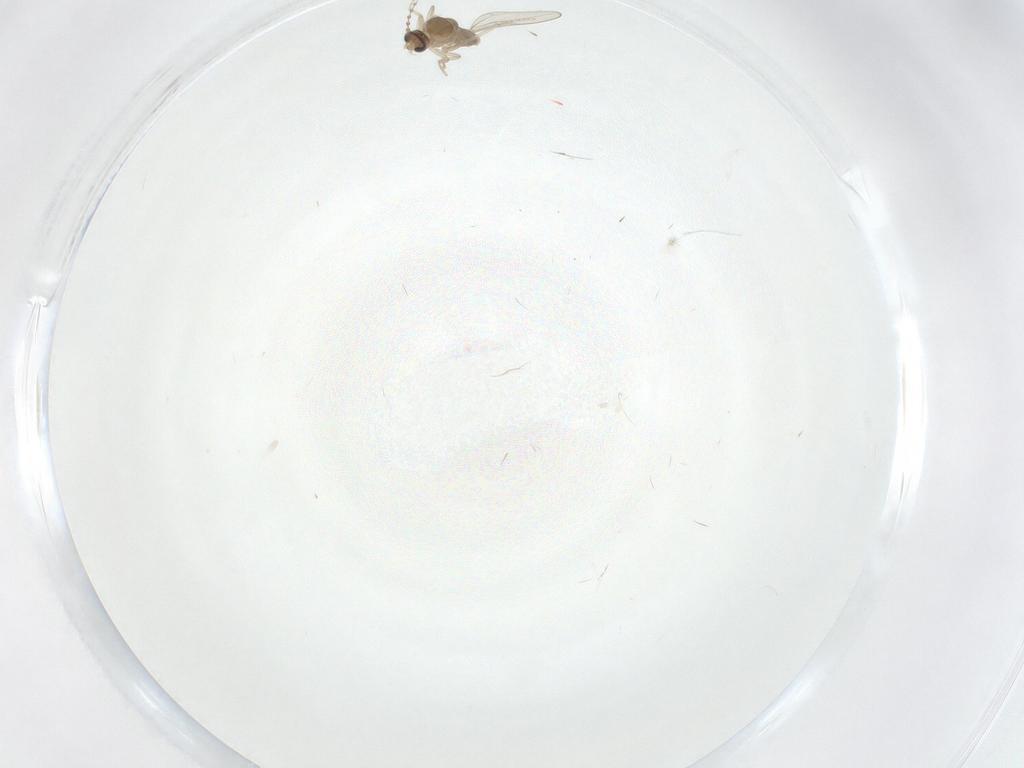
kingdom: Animalia
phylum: Arthropoda
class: Insecta
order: Diptera
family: Cecidomyiidae
